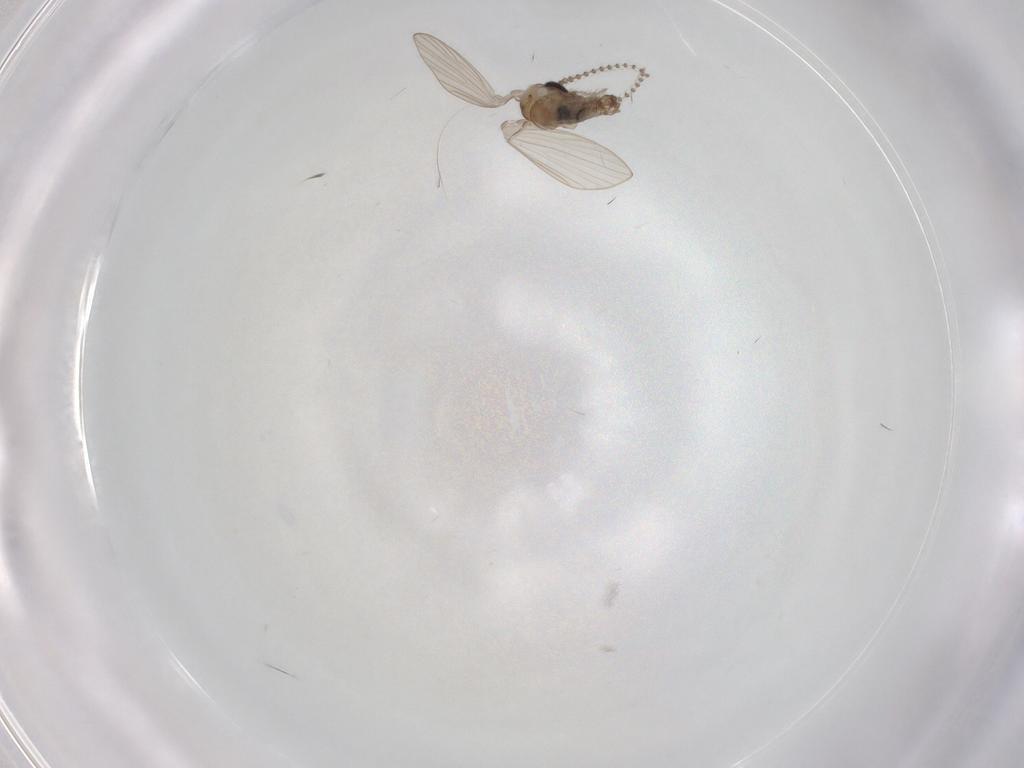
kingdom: Animalia
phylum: Arthropoda
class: Insecta
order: Diptera
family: Psychodidae
